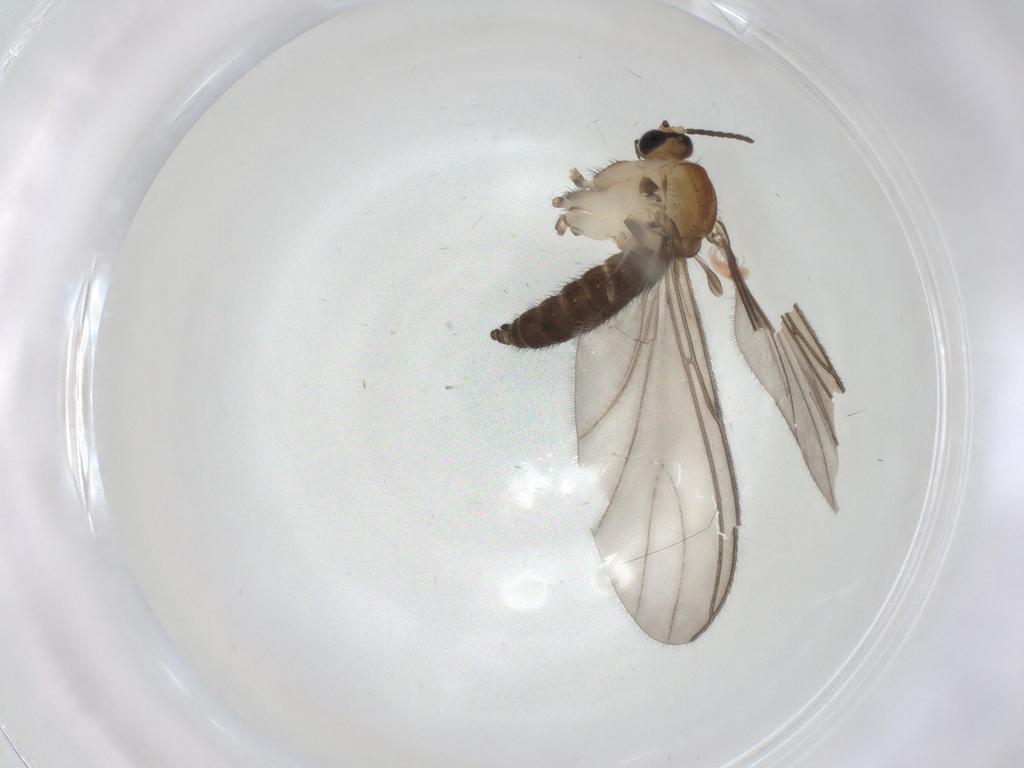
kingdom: Animalia
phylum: Arthropoda
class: Insecta
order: Diptera
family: Sciaridae
